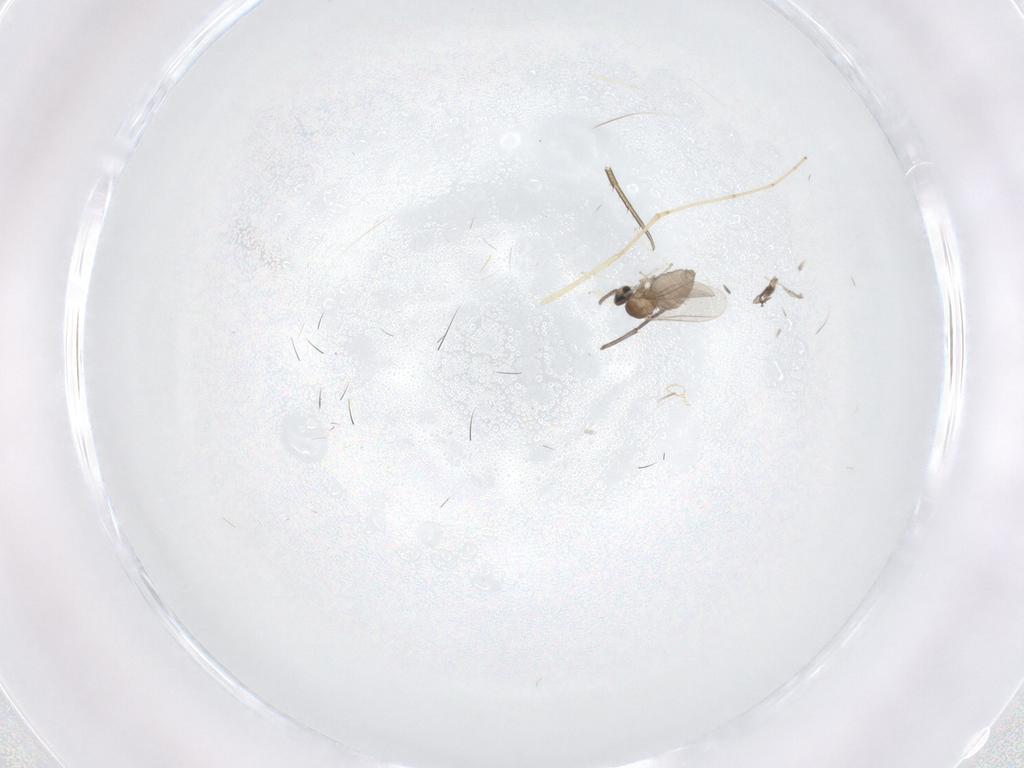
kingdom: Animalia
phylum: Arthropoda
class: Insecta
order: Diptera
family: Cecidomyiidae
